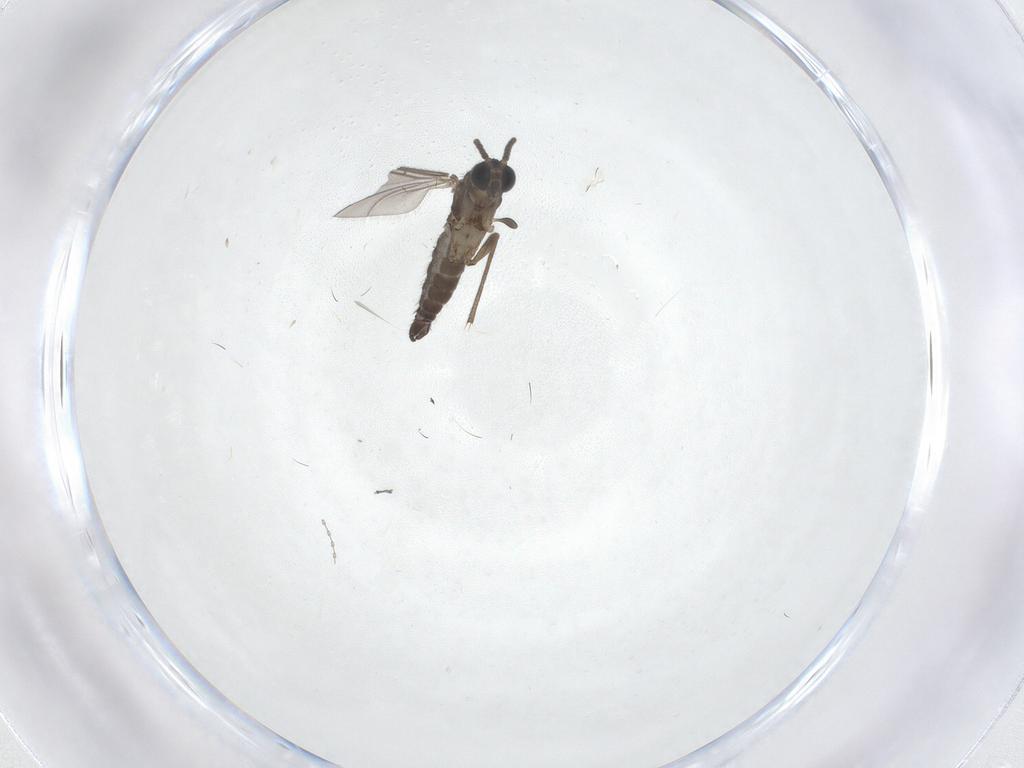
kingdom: Animalia
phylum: Arthropoda
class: Insecta
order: Diptera
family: Sciaridae
